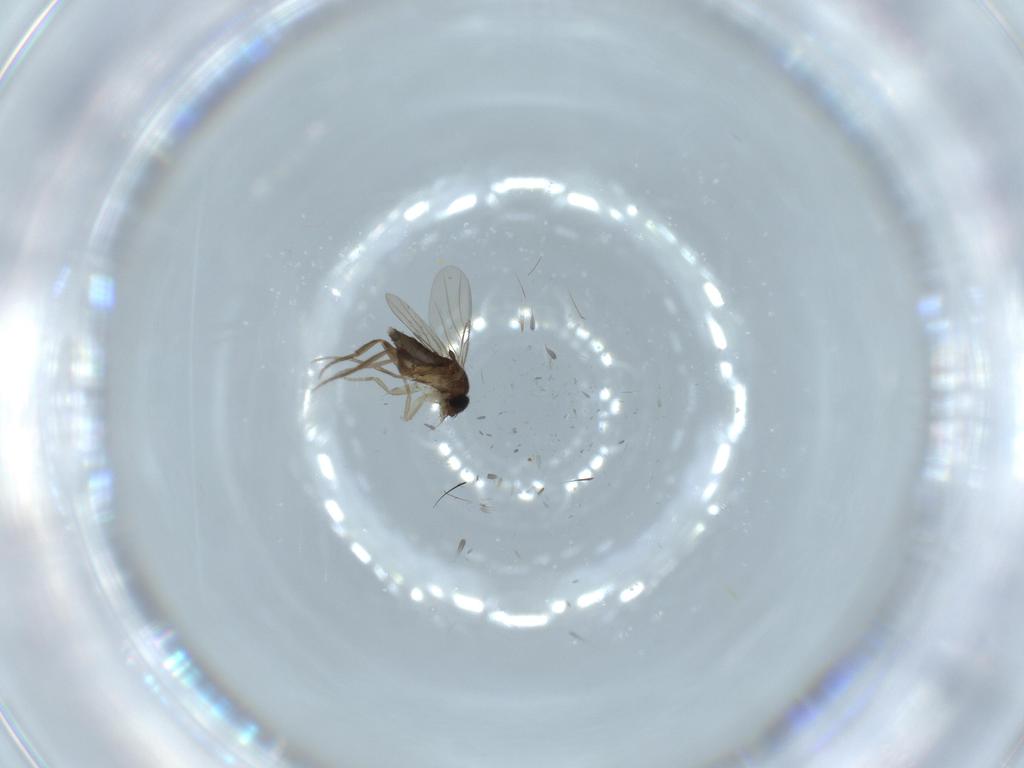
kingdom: Animalia
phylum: Arthropoda
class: Insecta
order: Diptera
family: Phoridae
